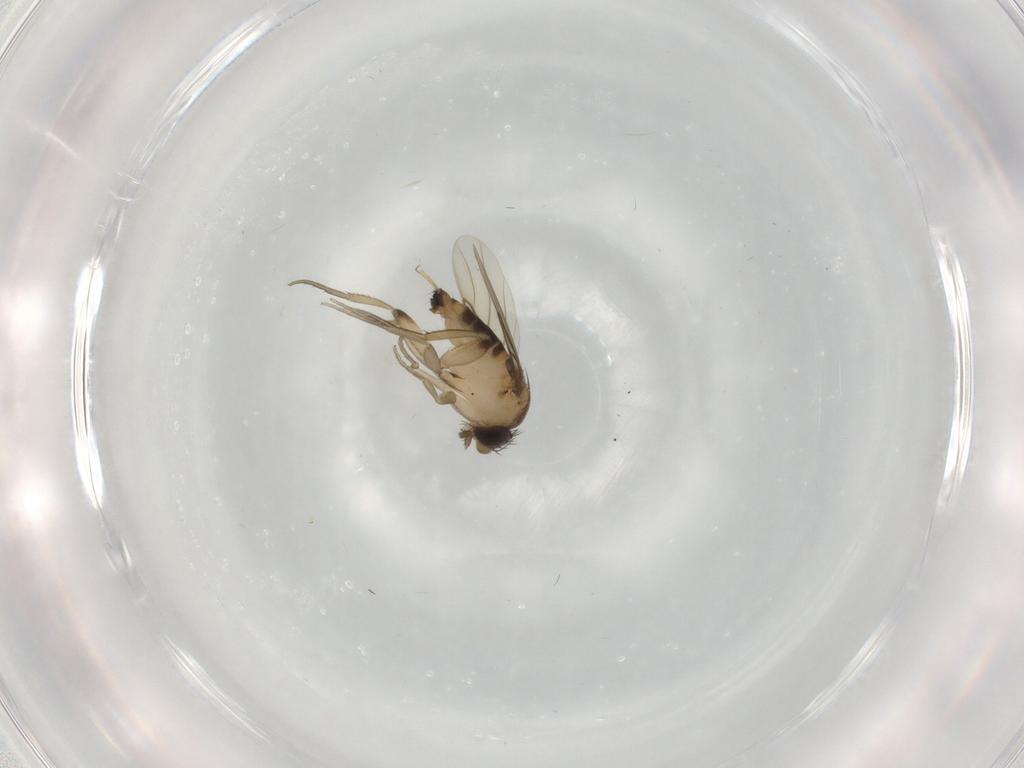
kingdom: Animalia
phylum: Arthropoda
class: Insecta
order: Diptera
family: Phoridae
